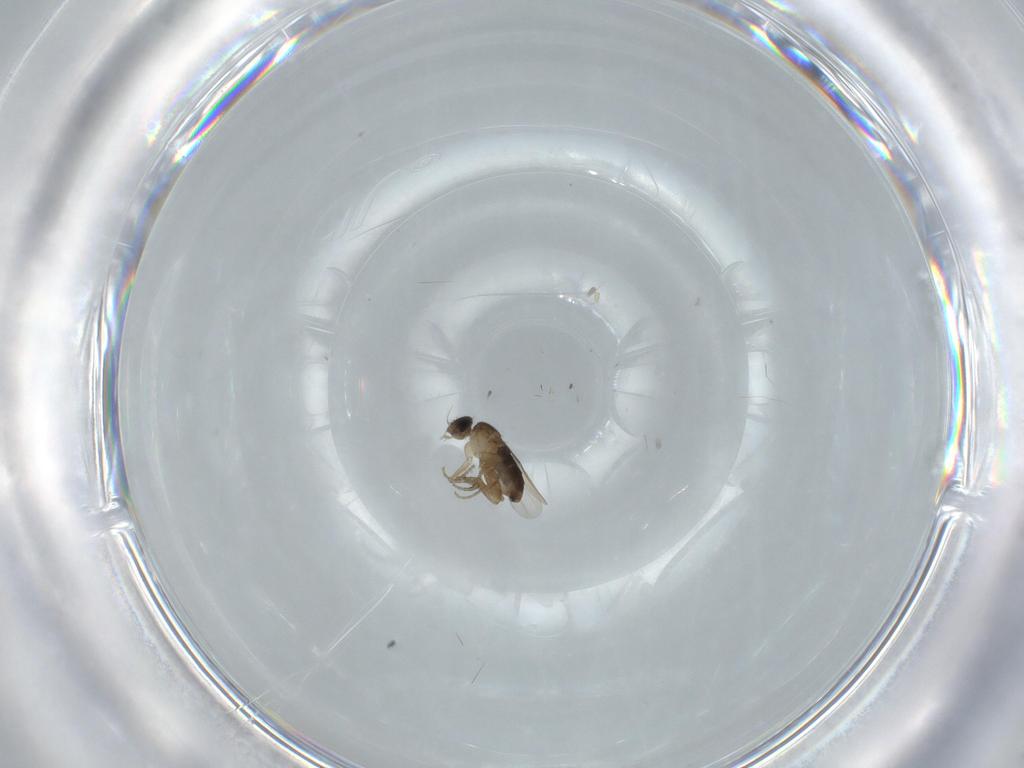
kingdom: Animalia
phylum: Arthropoda
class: Insecta
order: Diptera
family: Phoridae
